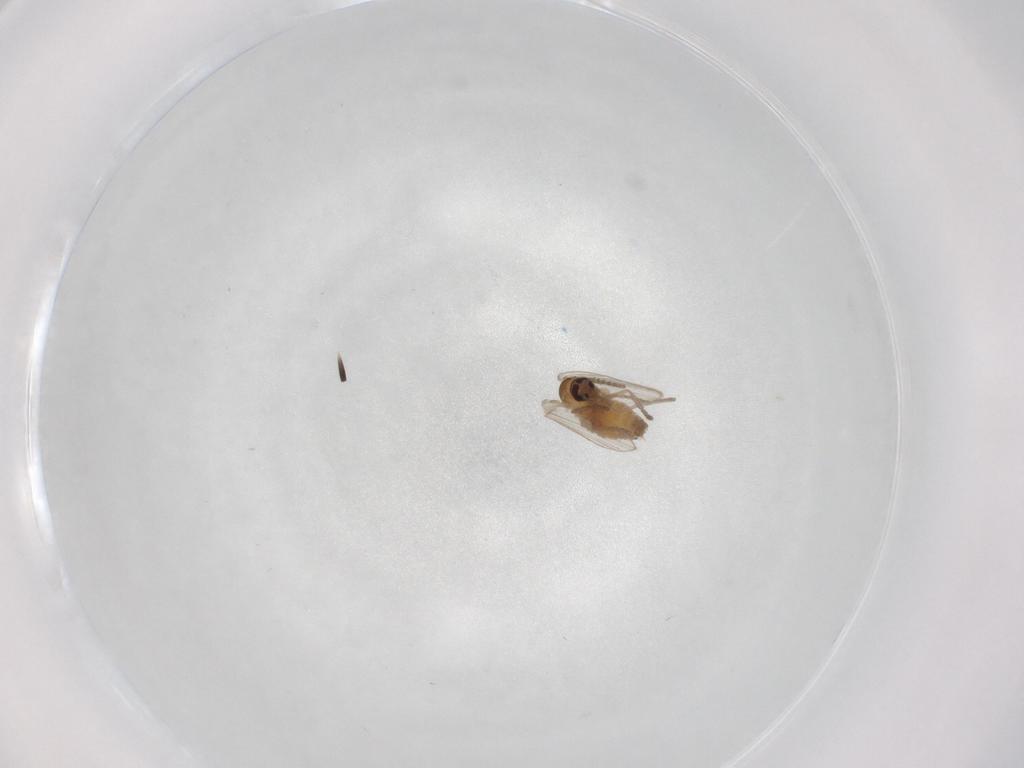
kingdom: Animalia
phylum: Arthropoda
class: Insecta
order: Diptera
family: Psychodidae
